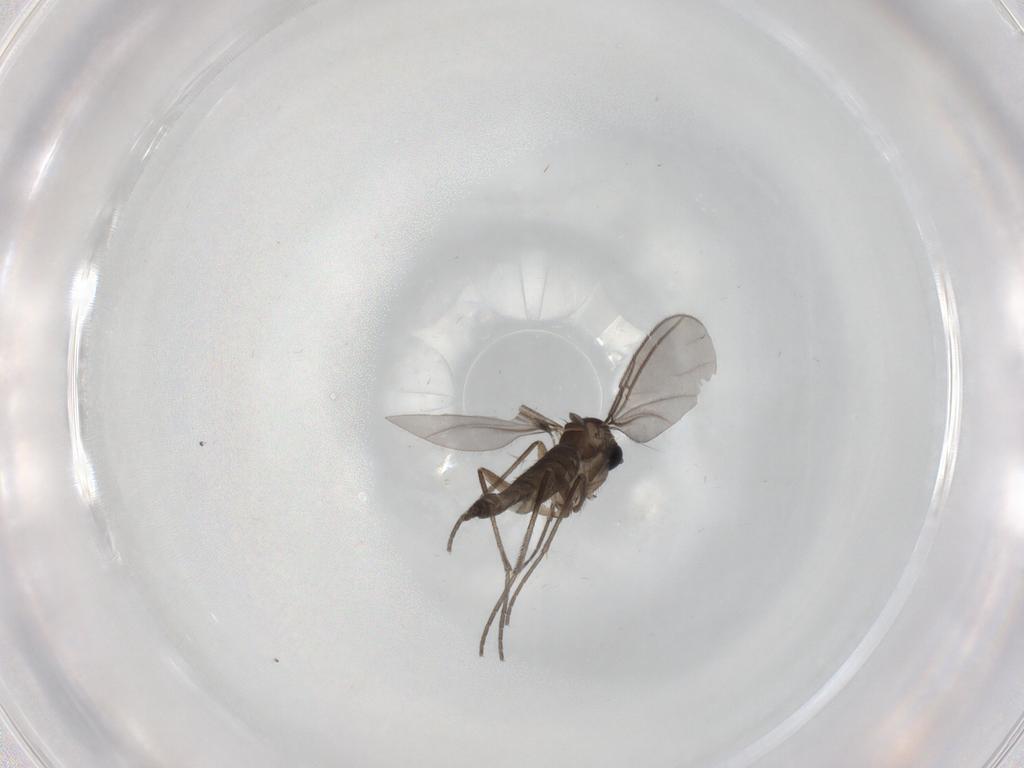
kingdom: Animalia
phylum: Arthropoda
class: Insecta
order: Diptera
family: Sciaridae
